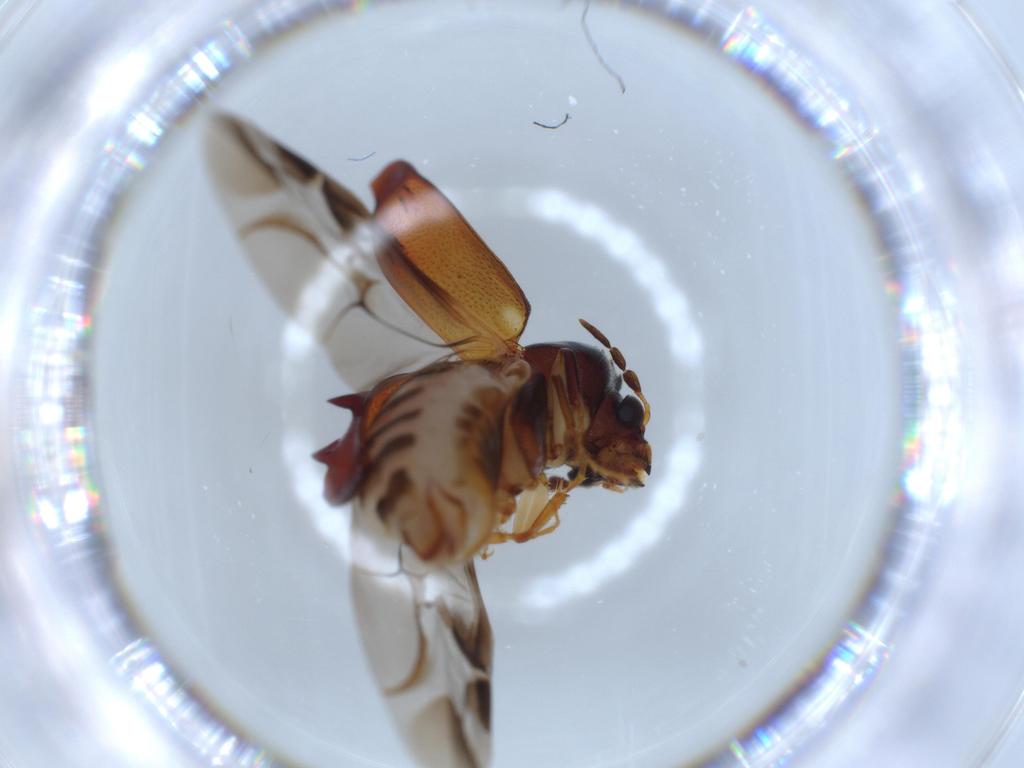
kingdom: Animalia
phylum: Arthropoda
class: Insecta
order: Coleoptera
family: Bostrichidae
